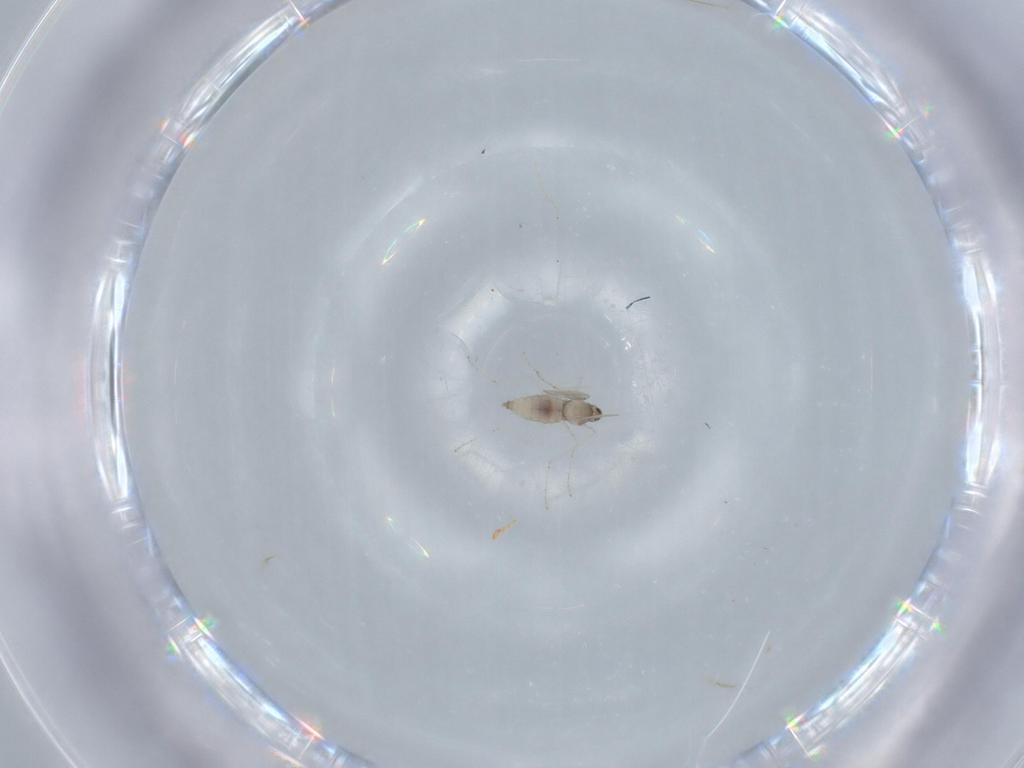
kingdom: Animalia
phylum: Arthropoda
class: Insecta
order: Diptera
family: Cecidomyiidae
